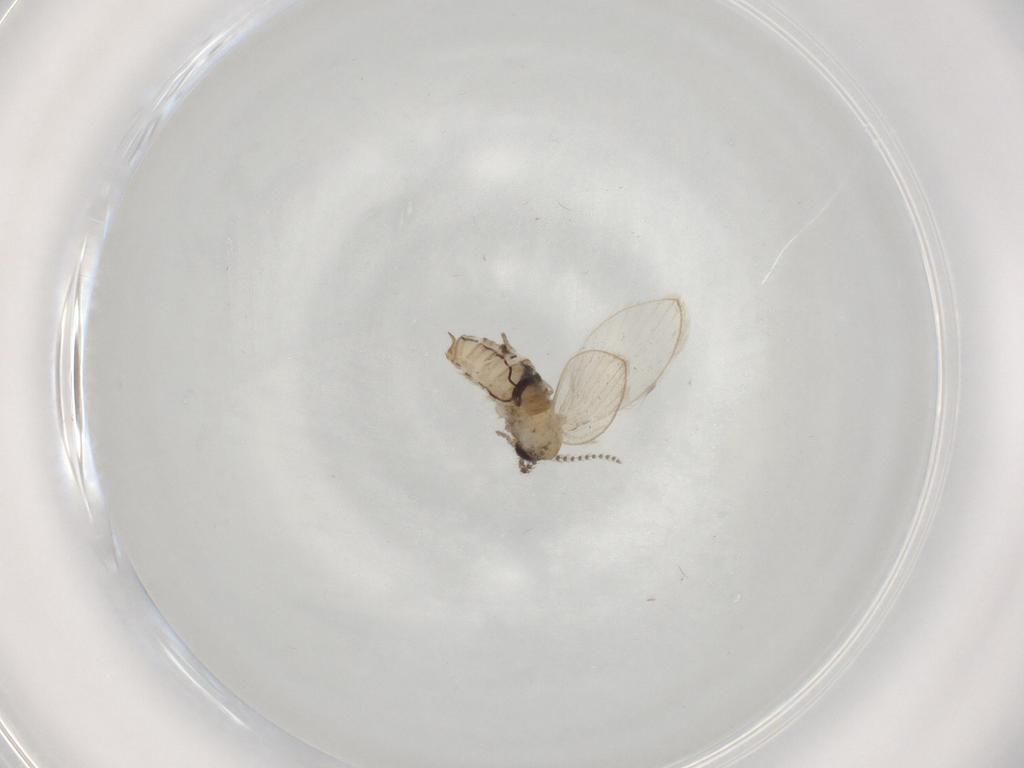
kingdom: Animalia
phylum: Arthropoda
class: Insecta
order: Diptera
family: Psychodidae
